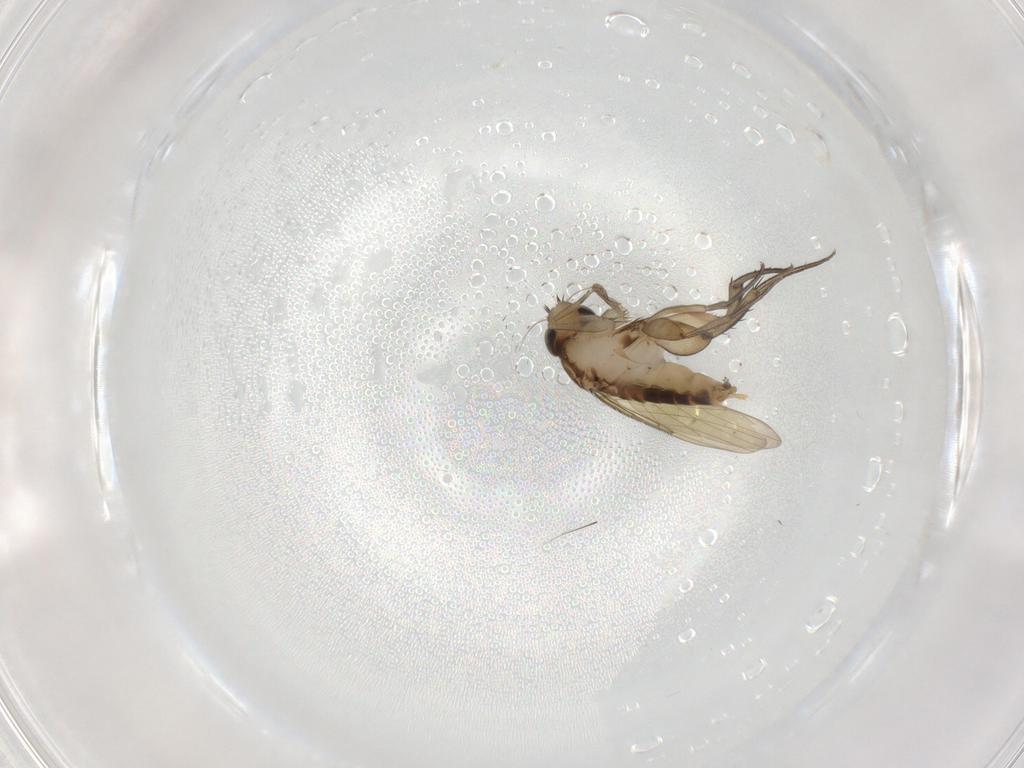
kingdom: Animalia
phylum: Arthropoda
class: Insecta
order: Diptera
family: Phoridae
